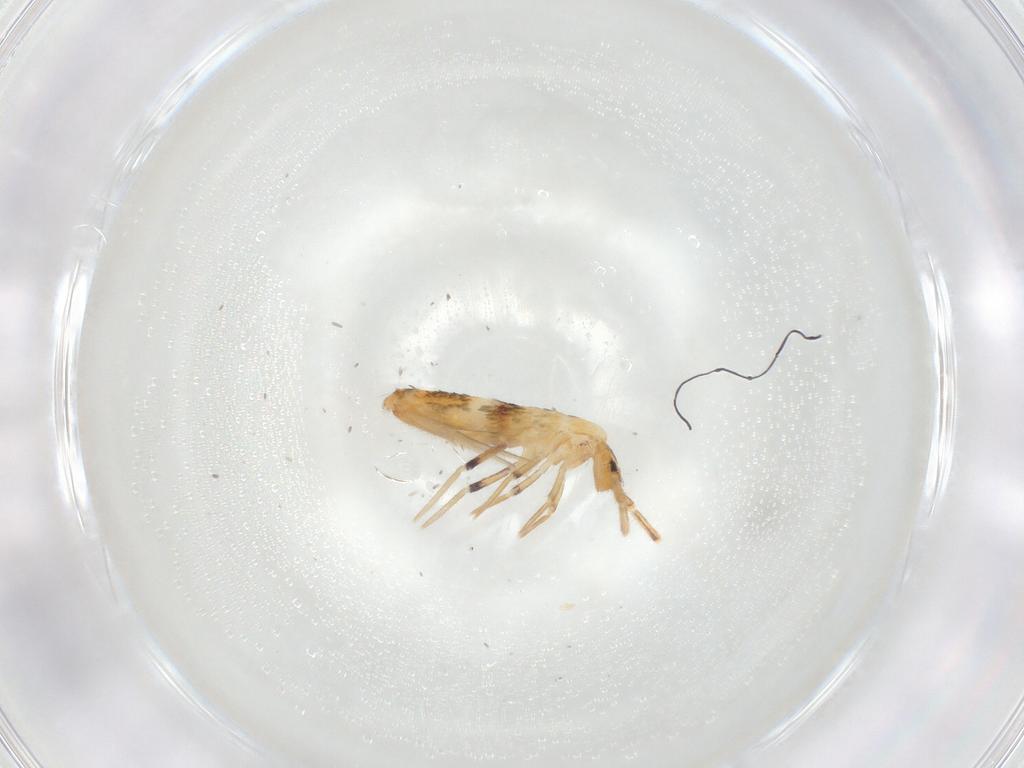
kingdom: Animalia
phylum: Arthropoda
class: Collembola
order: Entomobryomorpha
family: Entomobryidae
